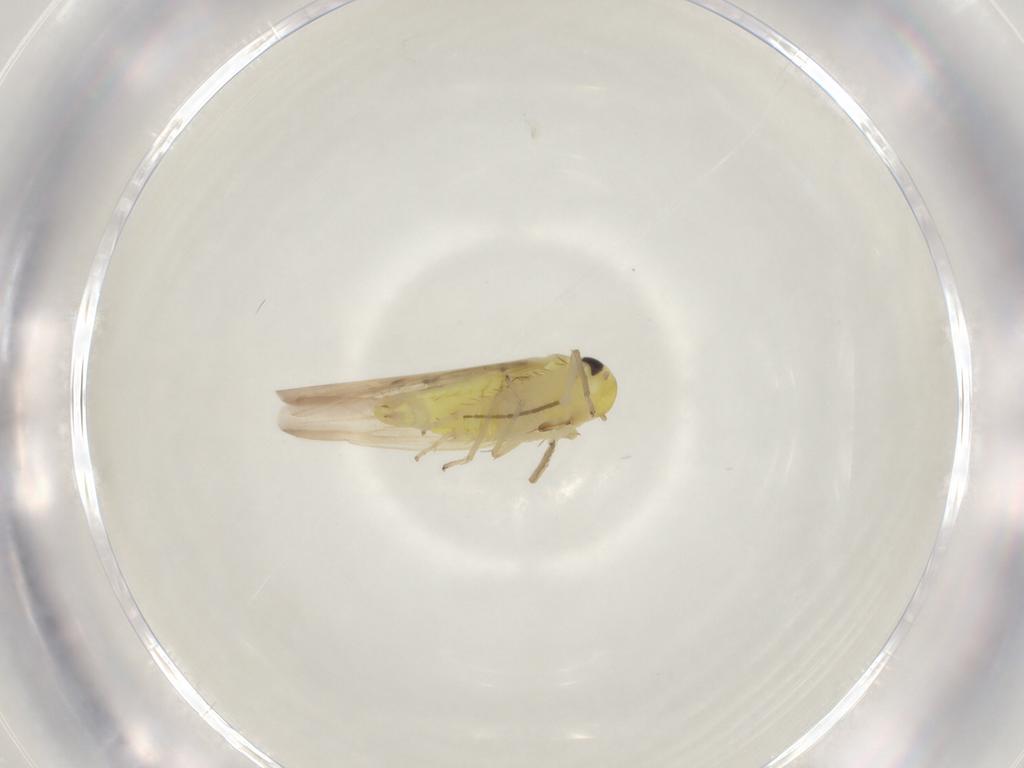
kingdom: Animalia
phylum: Arthropoda
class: Insecta
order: Hemiptera
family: Cicadellidae
